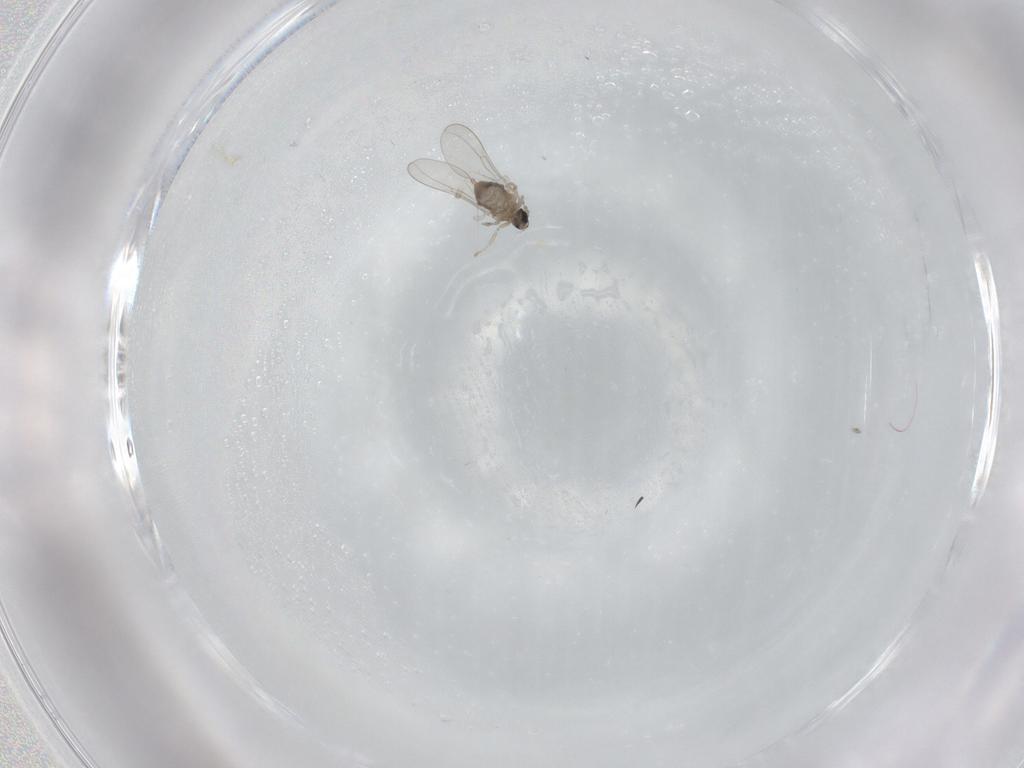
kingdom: Animalia
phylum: Arthropoda
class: Insecta
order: Diptera
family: Cecidomyiidae
